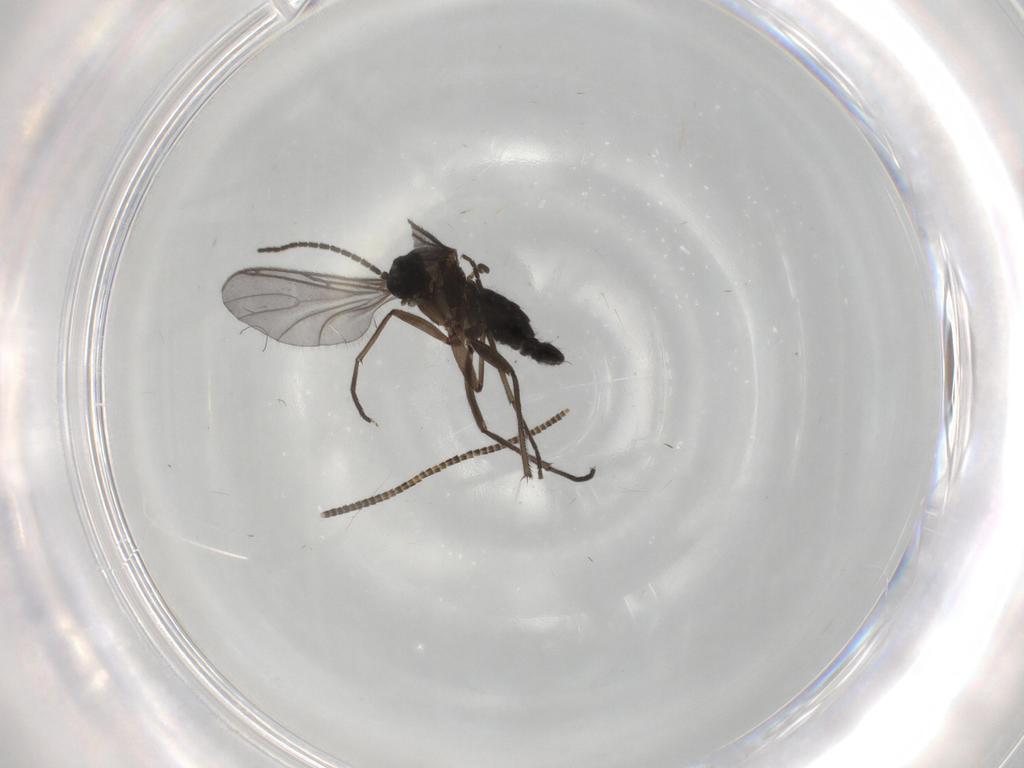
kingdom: Animalia
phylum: Arthropoda
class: Insecta
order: Diptera
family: Sciaridae
